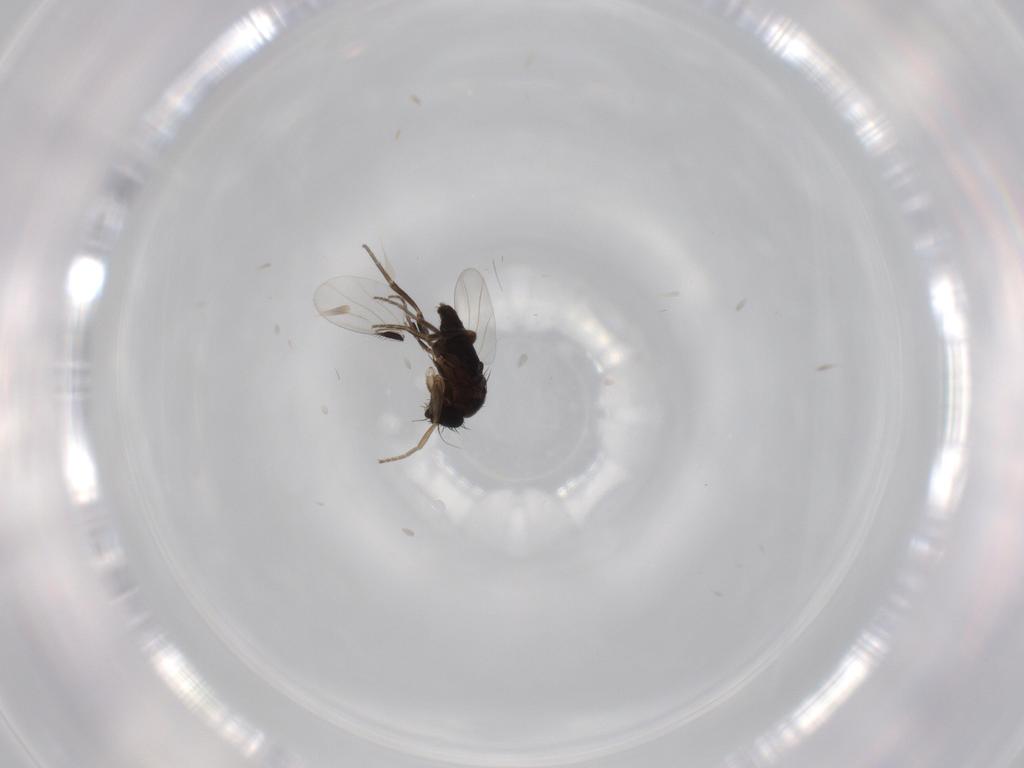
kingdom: Animalia
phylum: Arthropoda
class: Insecta
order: Diptera
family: Phoridae
